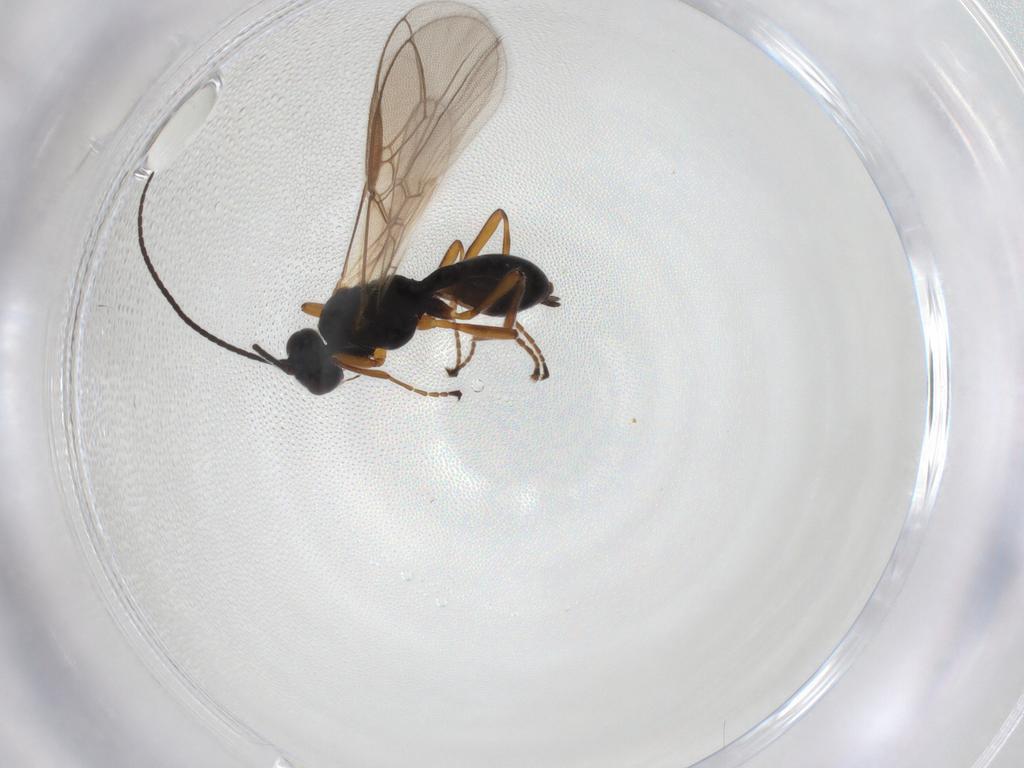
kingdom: Animalia
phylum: Arthropoda
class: Insecta
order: Hymenoptera
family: Braconidae
